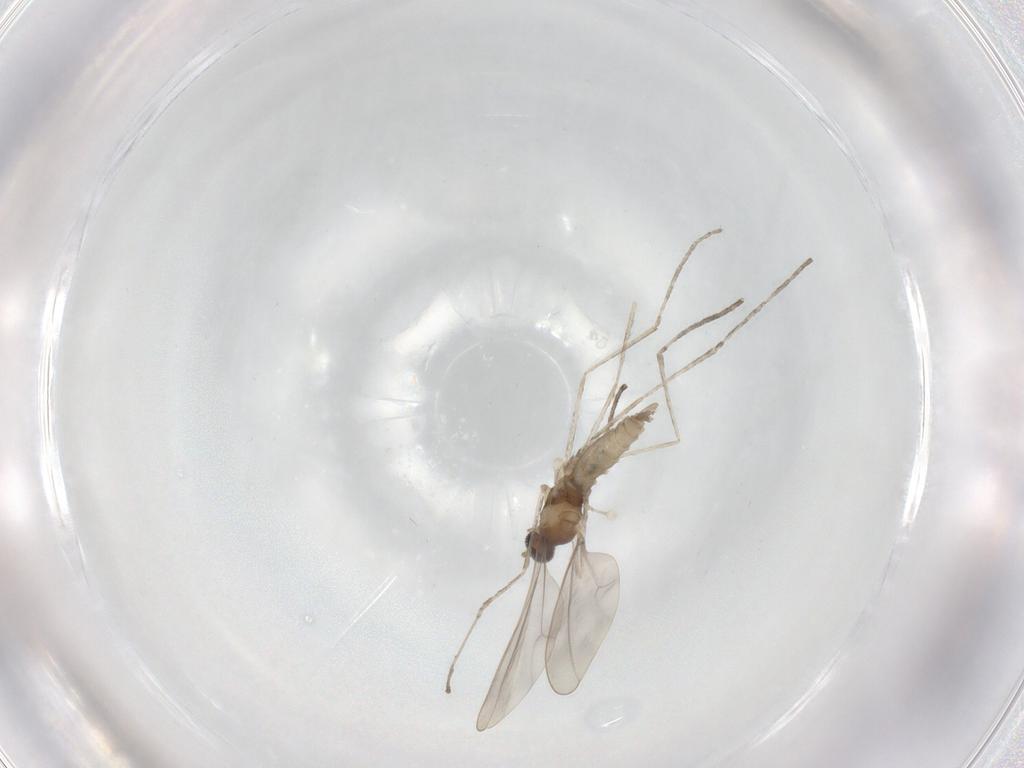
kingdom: Animalia
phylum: Arthropoda
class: Insecta
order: Diptera
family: Cecidomyiidae
